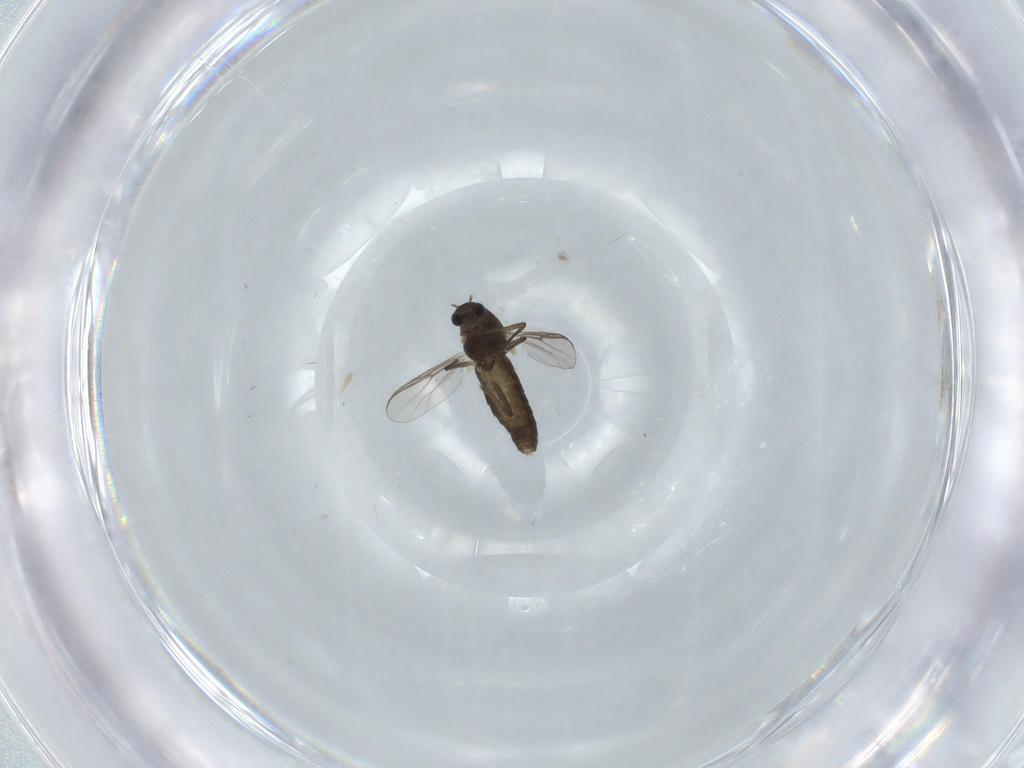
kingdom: Animalia
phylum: Arthropoda
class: Insecta
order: Diptera
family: Chironomidae
